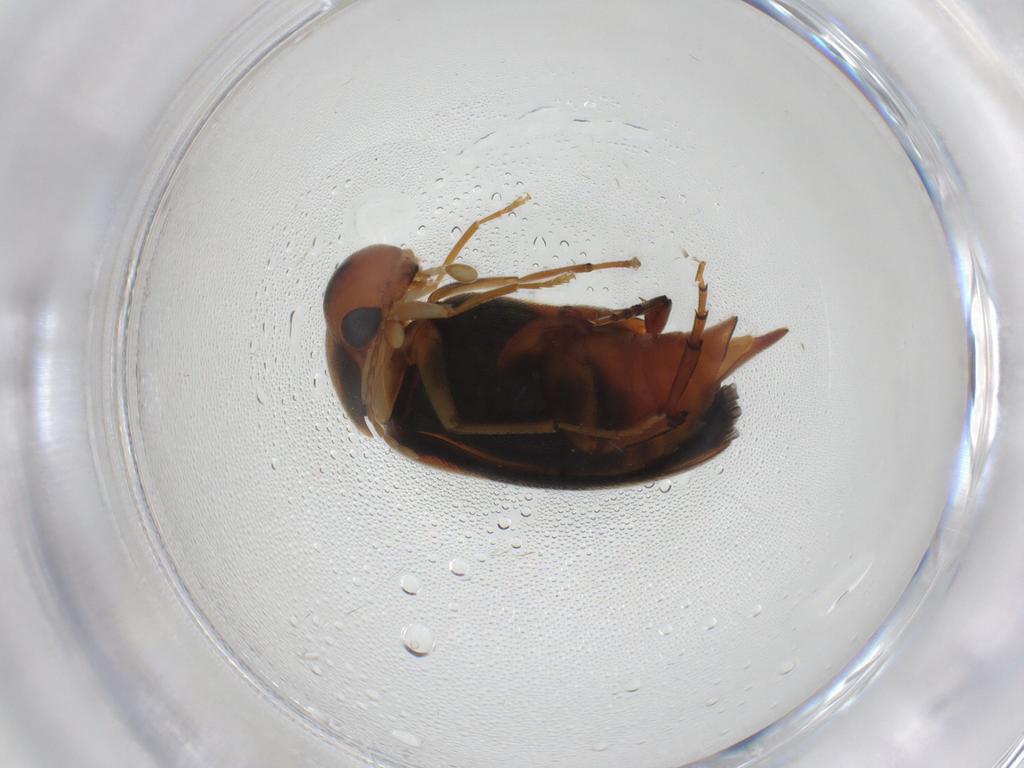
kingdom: Animalia
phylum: Arthropoda
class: Insecta
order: Coleoptera
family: Mordellidae
